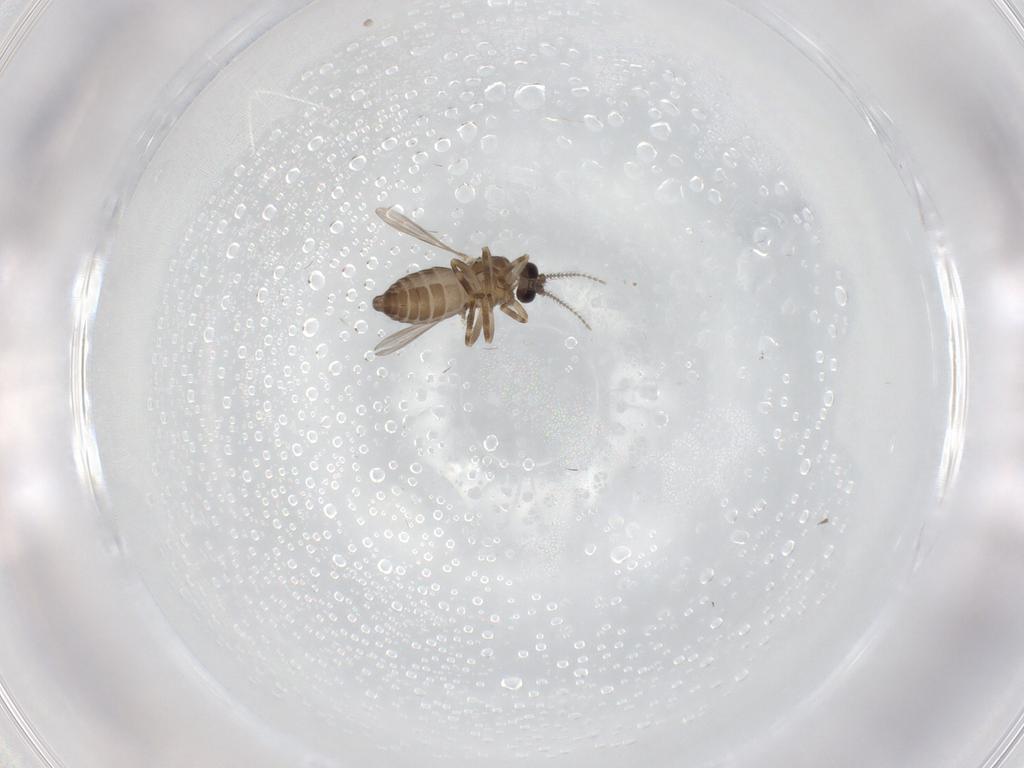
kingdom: Animalia
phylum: Arthropoda
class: Insecta
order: Diptera
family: Ceratopogonidae
